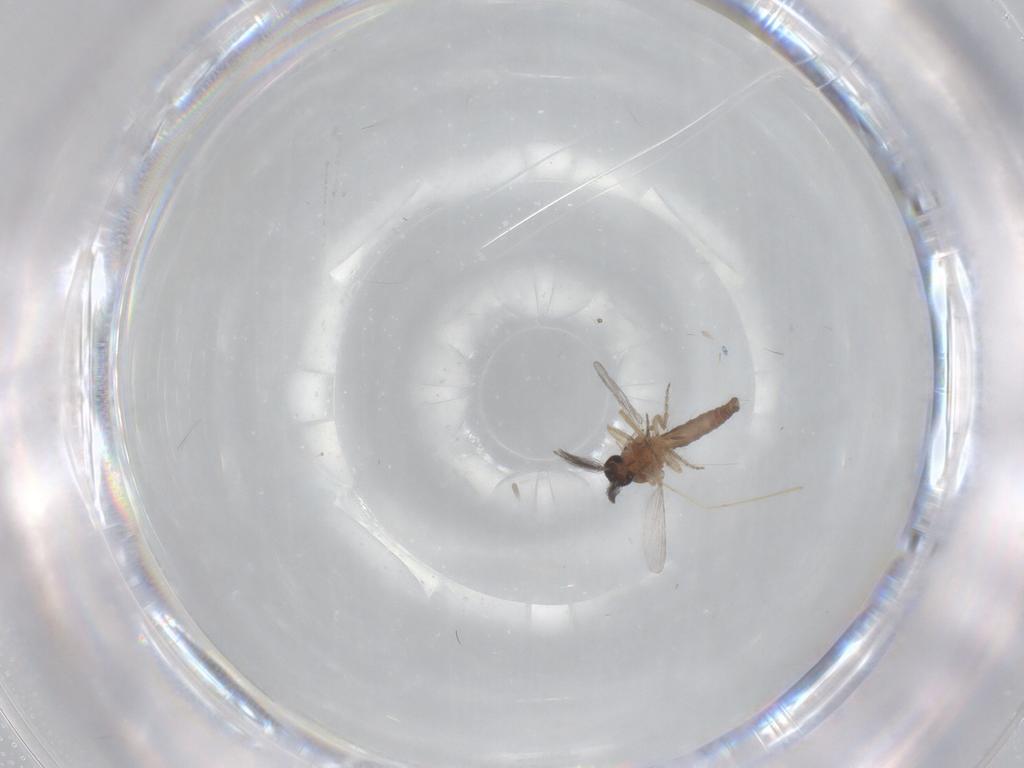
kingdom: Animalia
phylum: Arthropoda
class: Insecta
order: Diptera
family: Ceratopogonidae
